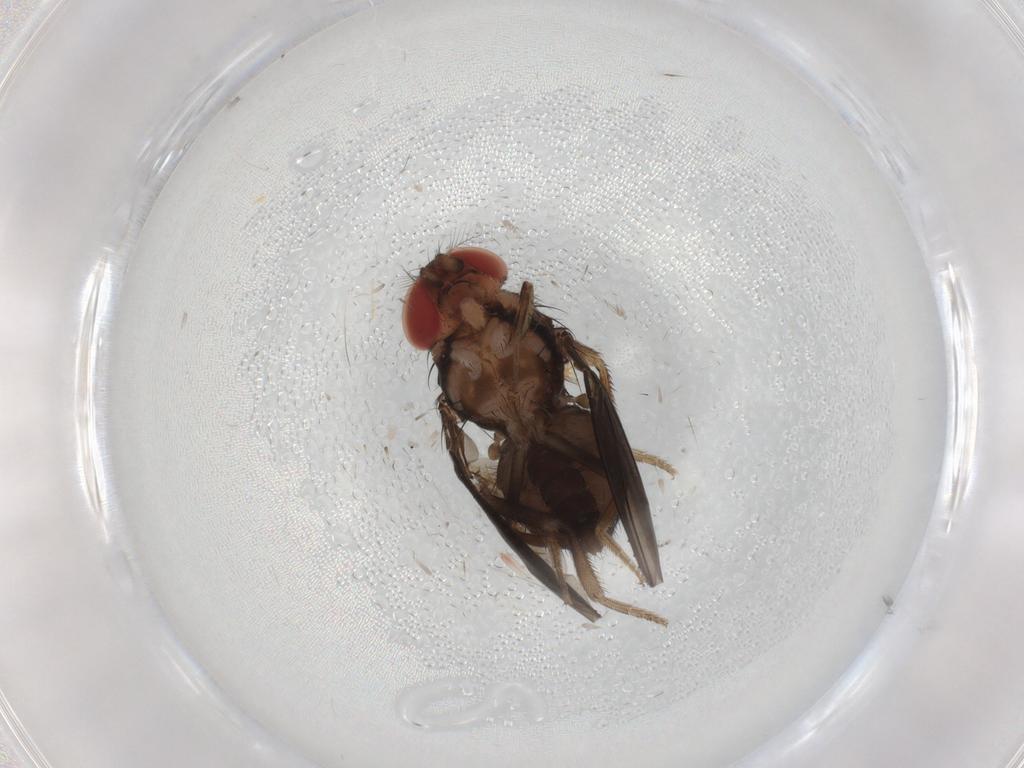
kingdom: Animalia
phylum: Arthropoda
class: Insecta
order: Diptera
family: Drosophilidae
